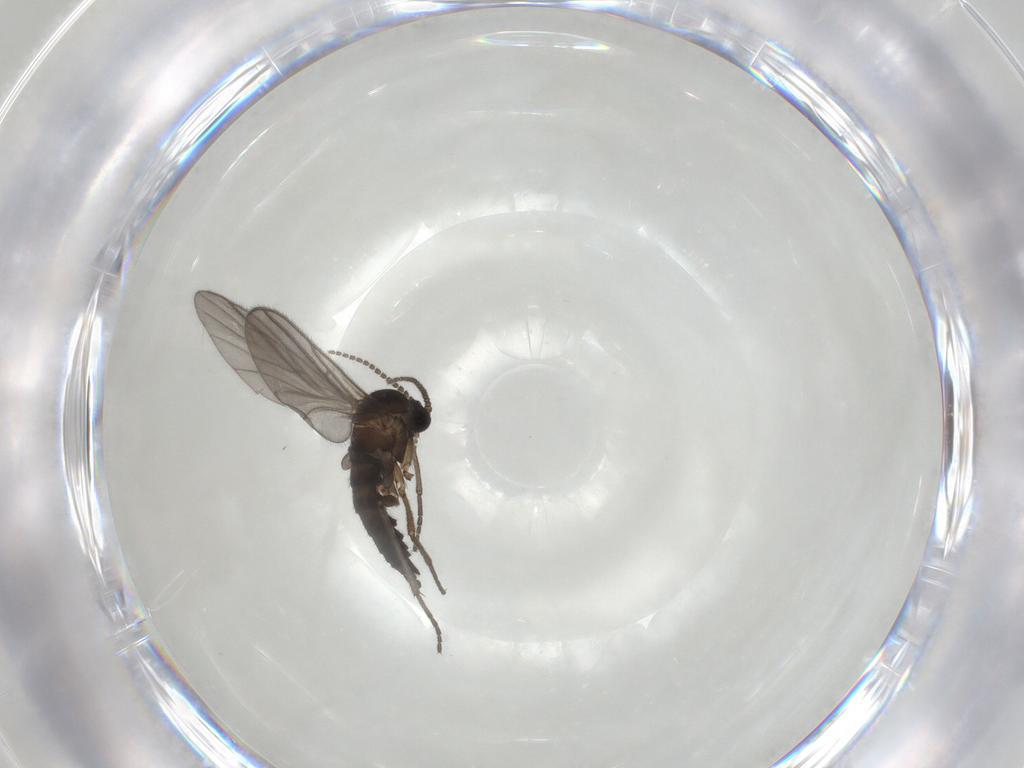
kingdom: Animalia
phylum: Arthropoda
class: Insecta
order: Diptera
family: Sciaridae
